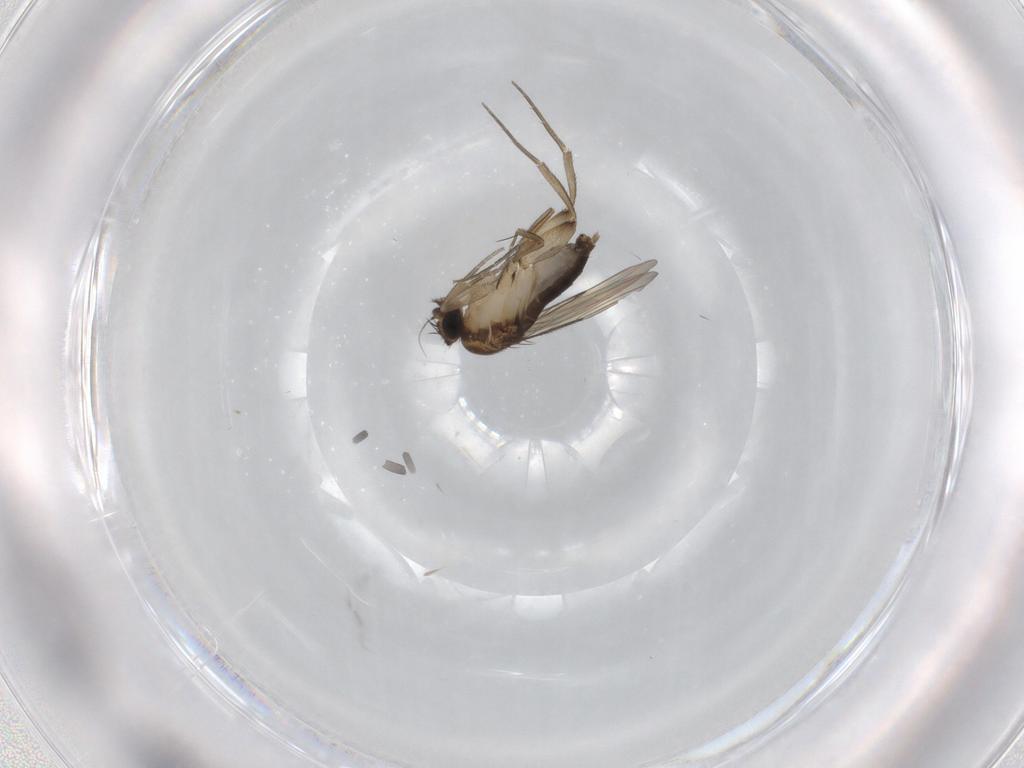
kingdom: Animalia
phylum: Arthropoda
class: Insecta
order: Diptera
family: Phoridae
